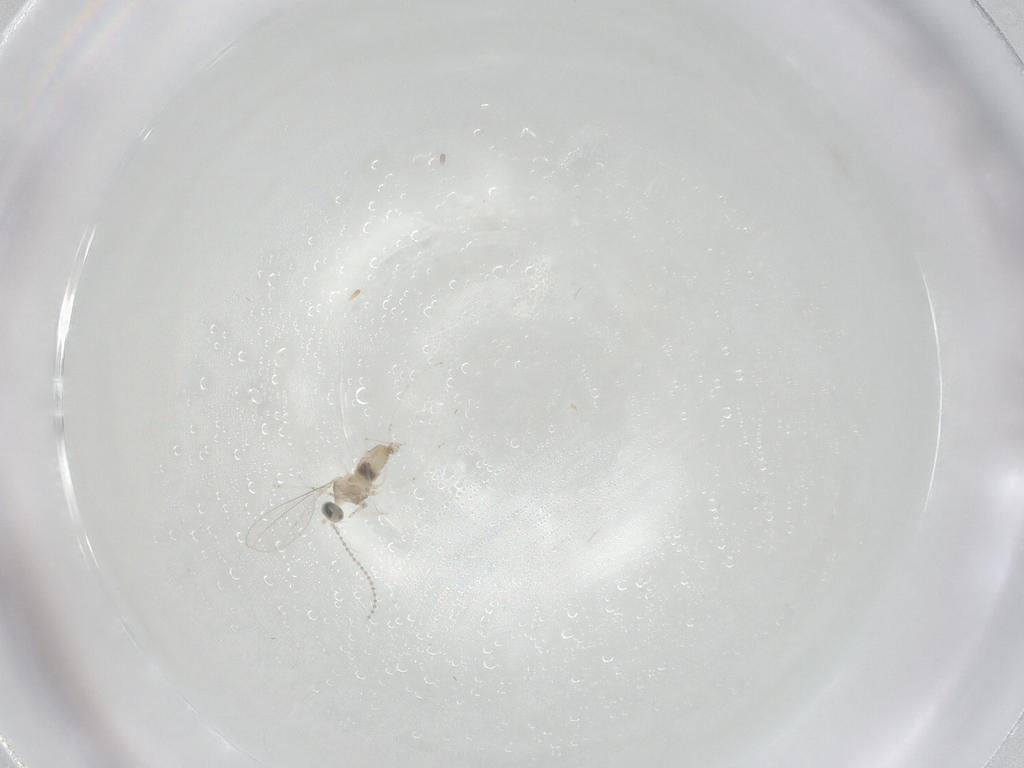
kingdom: Animalia
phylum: Arthropoda
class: Insecta
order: Diptera
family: Cecidomyiidae
